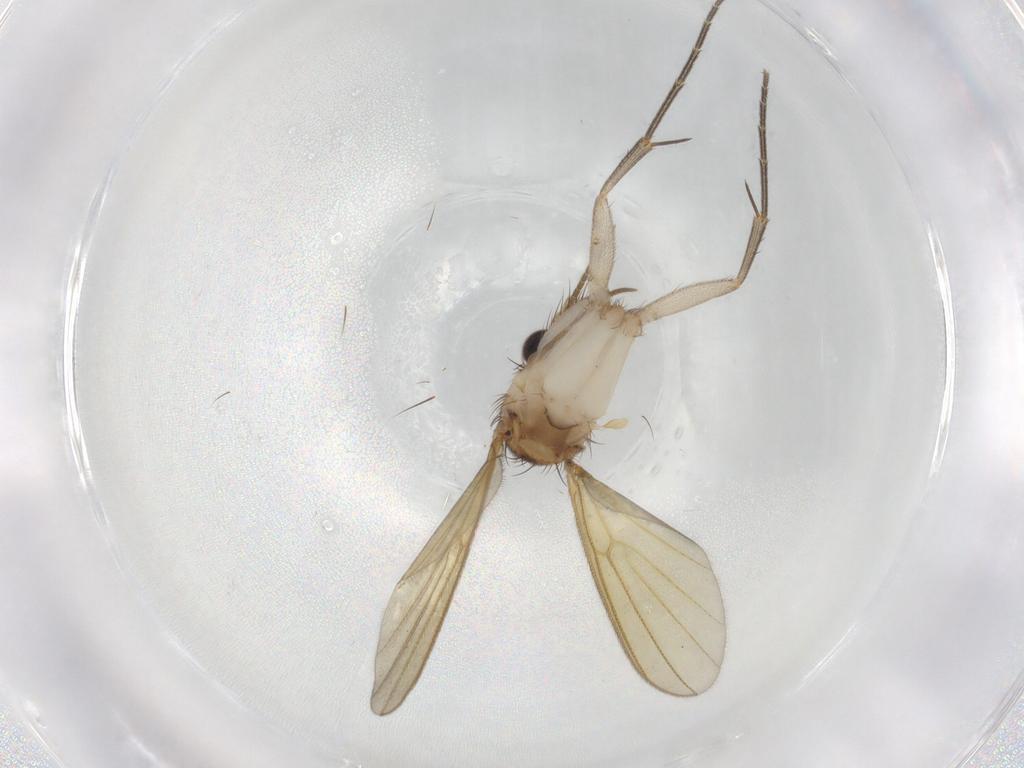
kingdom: Animalia
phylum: Arthropoda
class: Insecta
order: Diptera
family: Mycetophilidae
